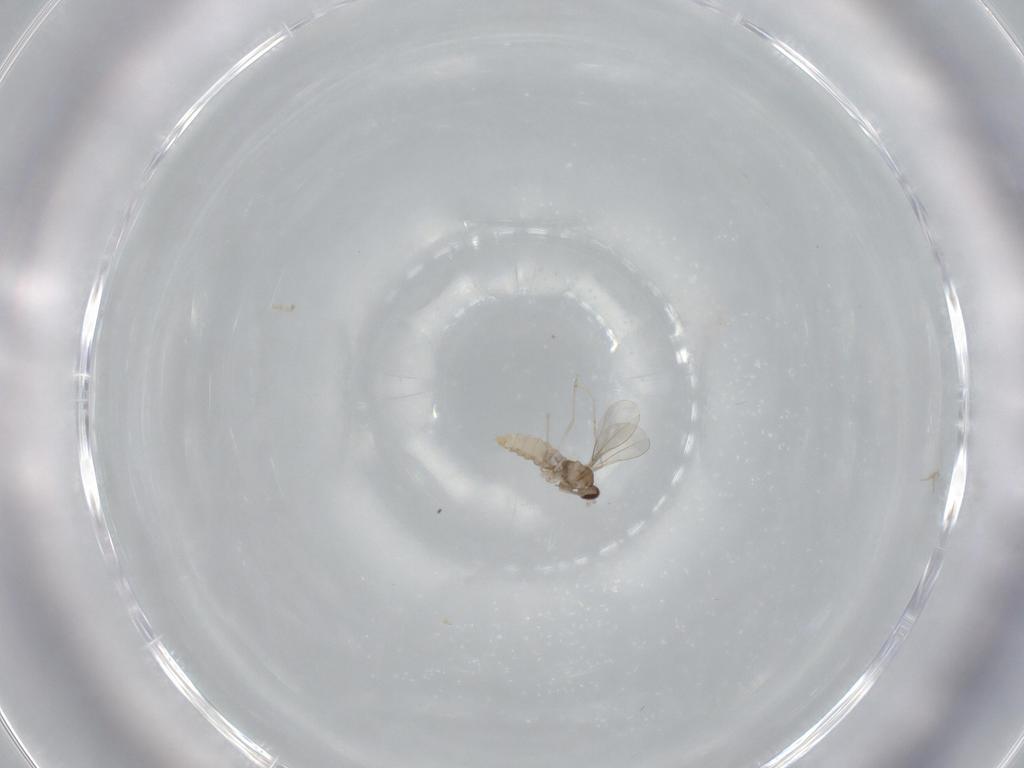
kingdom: Animalia
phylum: Arthropoda
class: Insecta
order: Diptera
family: Cecidomyiidae
